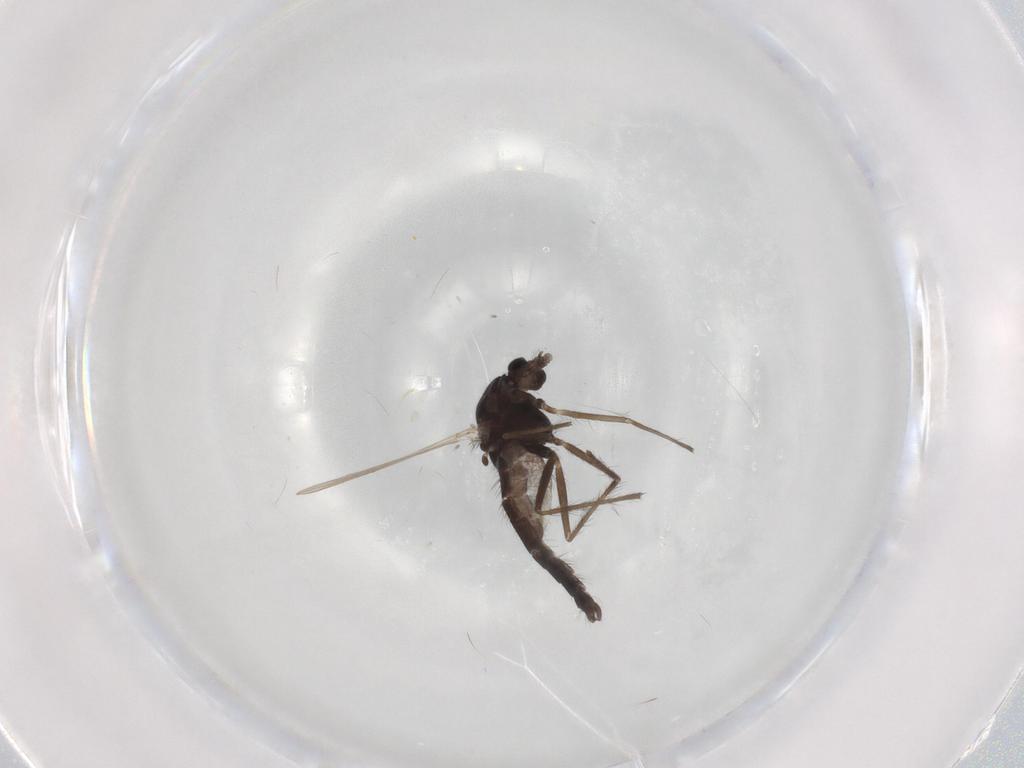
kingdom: Animalia
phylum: Arthropoda
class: Insecta
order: Diptera
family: Chironomidae
